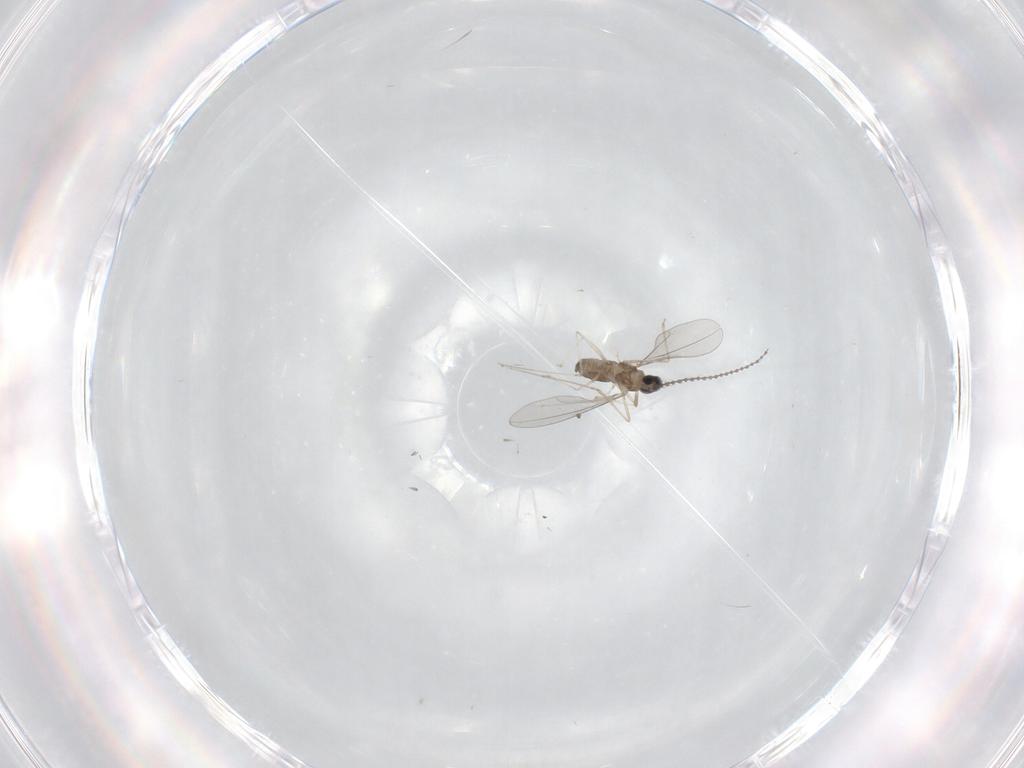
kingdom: Animalia
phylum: Arthropoda
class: Insecta
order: Diptera
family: Cecidomyiidae
